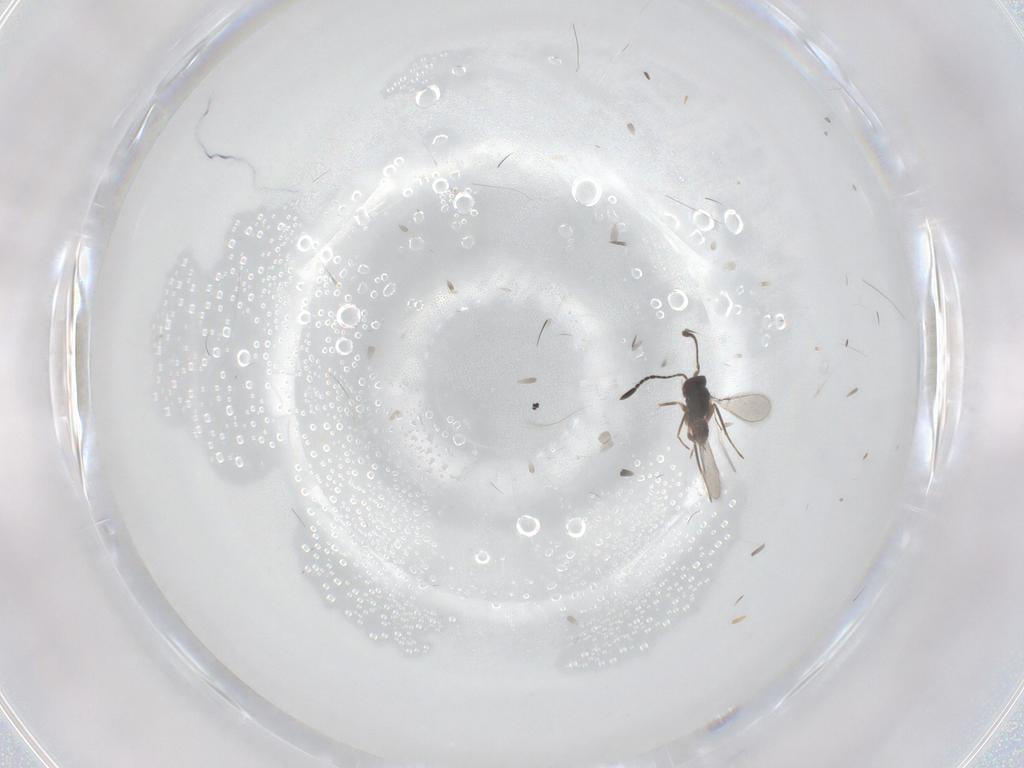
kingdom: Animalia
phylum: Arthropoda
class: Insecta
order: Hymenoptera
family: Mymaridae
